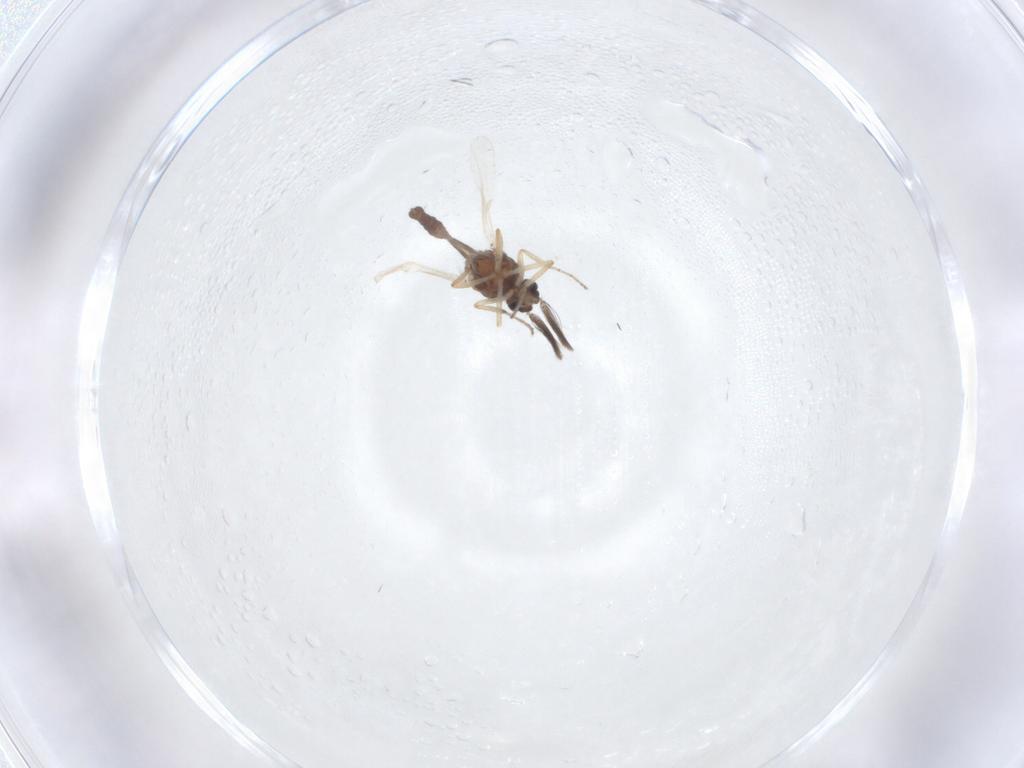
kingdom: Animalia
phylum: Arthropoda
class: Insecta
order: Diptera
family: Ceratopogonidae
